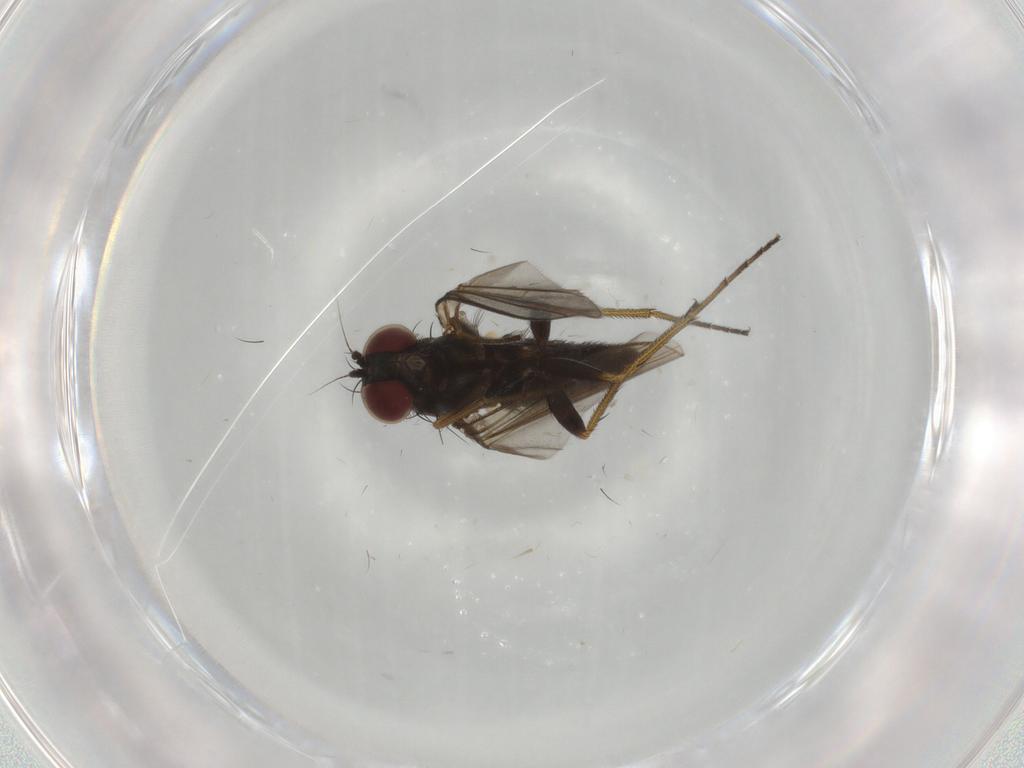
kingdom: Animalia
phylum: Arthropoda
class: Insecta
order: Diptera
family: Dolichopodidae
